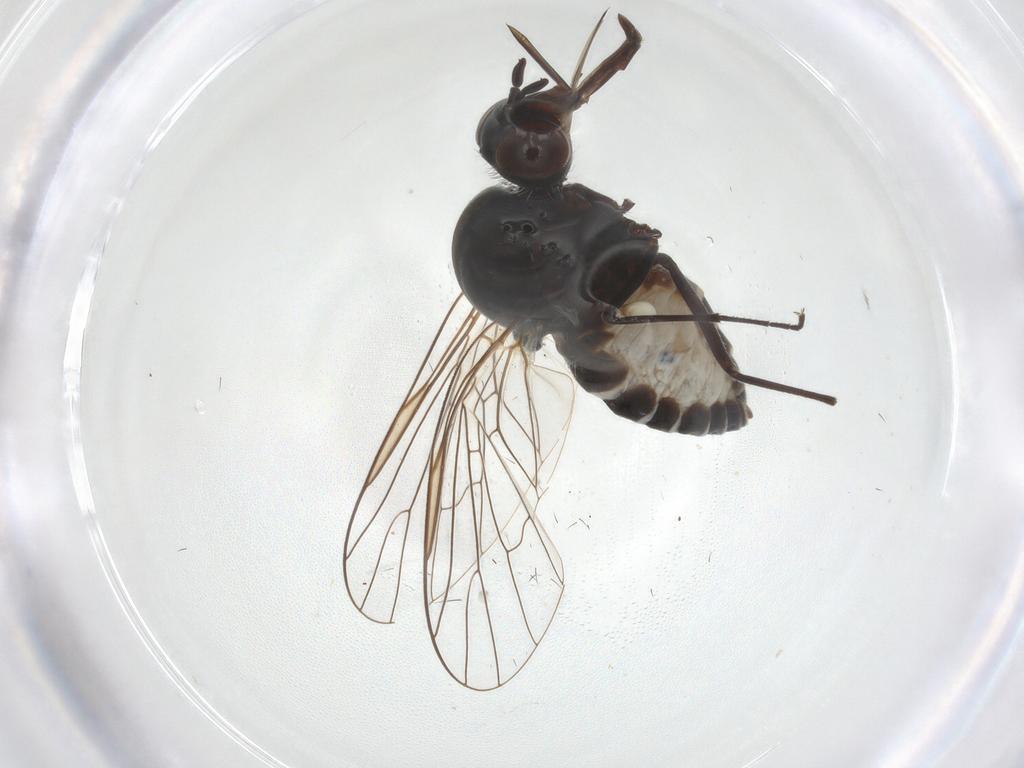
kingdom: Animalia
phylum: Arthropoda
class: Insecta
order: Diptera
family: Bombyliidae
